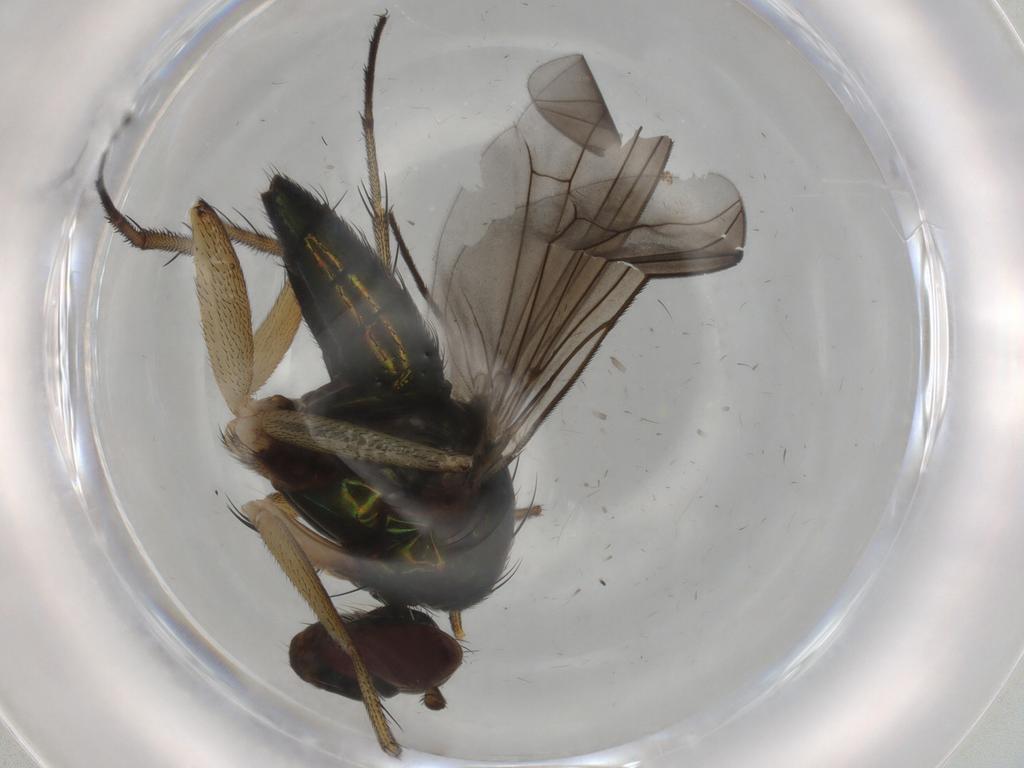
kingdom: Animalia
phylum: Arthropoda
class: Insecta
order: Diptera
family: Dolichopodidae
